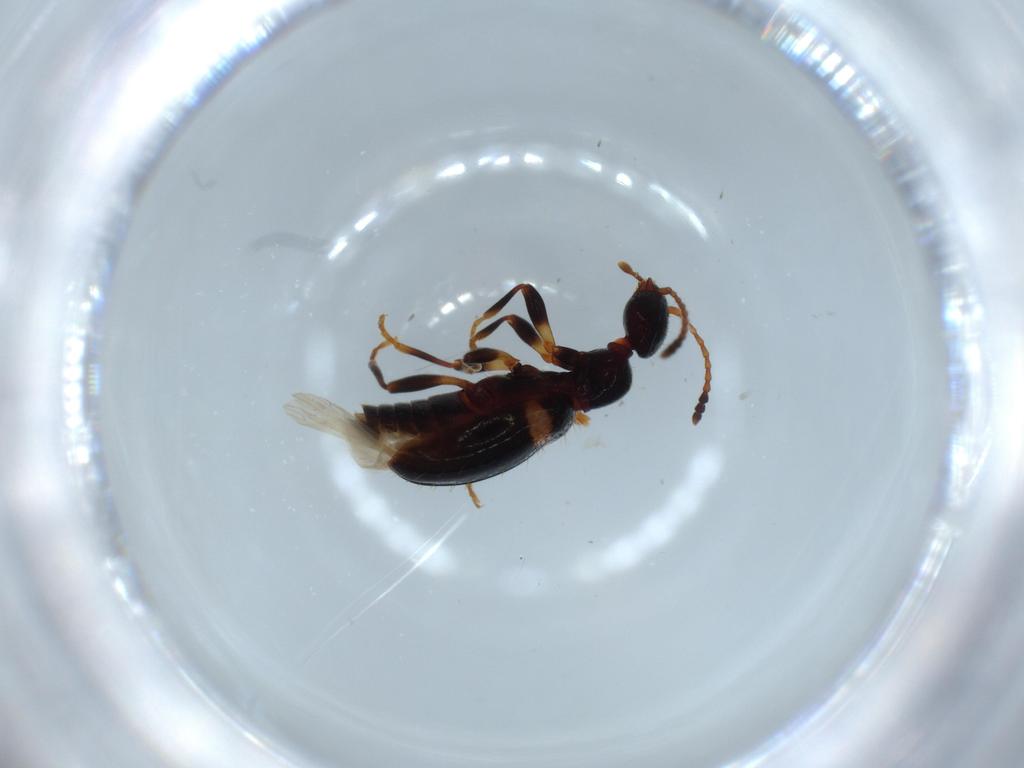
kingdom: Animalia
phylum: Arthropoda
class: Insecta
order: Coleoptera
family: Anthicidae
